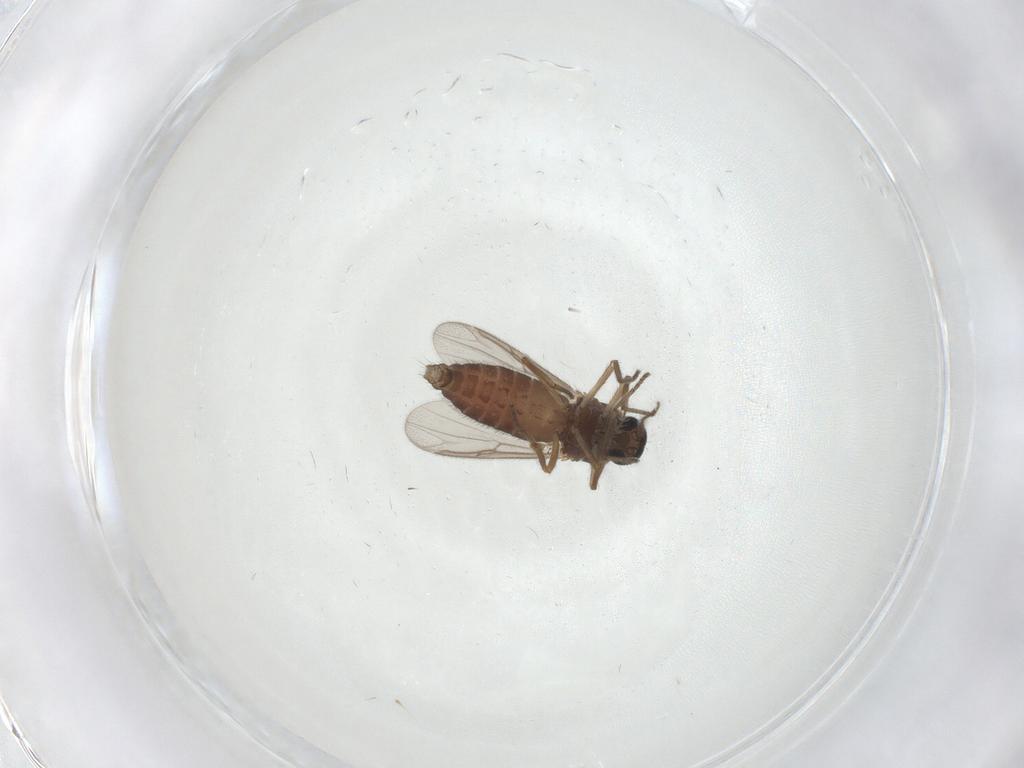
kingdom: Animalia
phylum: Arthropoda
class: Insecta
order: Diptera
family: Ceratopogonidae
